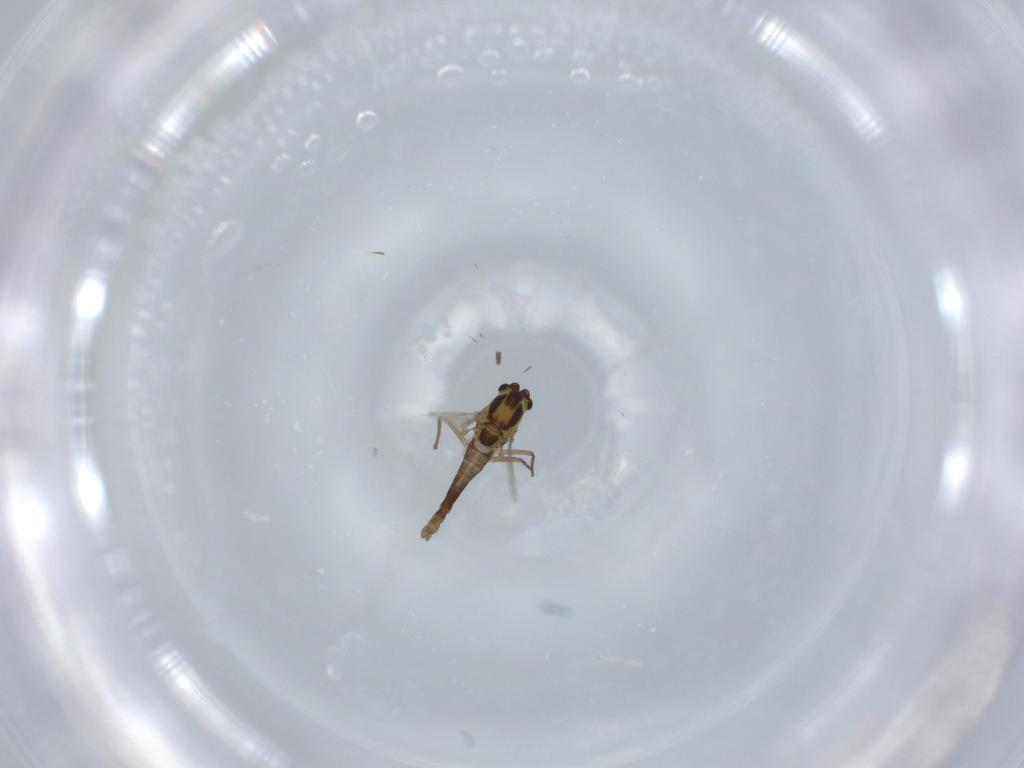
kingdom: Animalia
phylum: Arthropoda
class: Insecta
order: Diptera
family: Chironomidae
